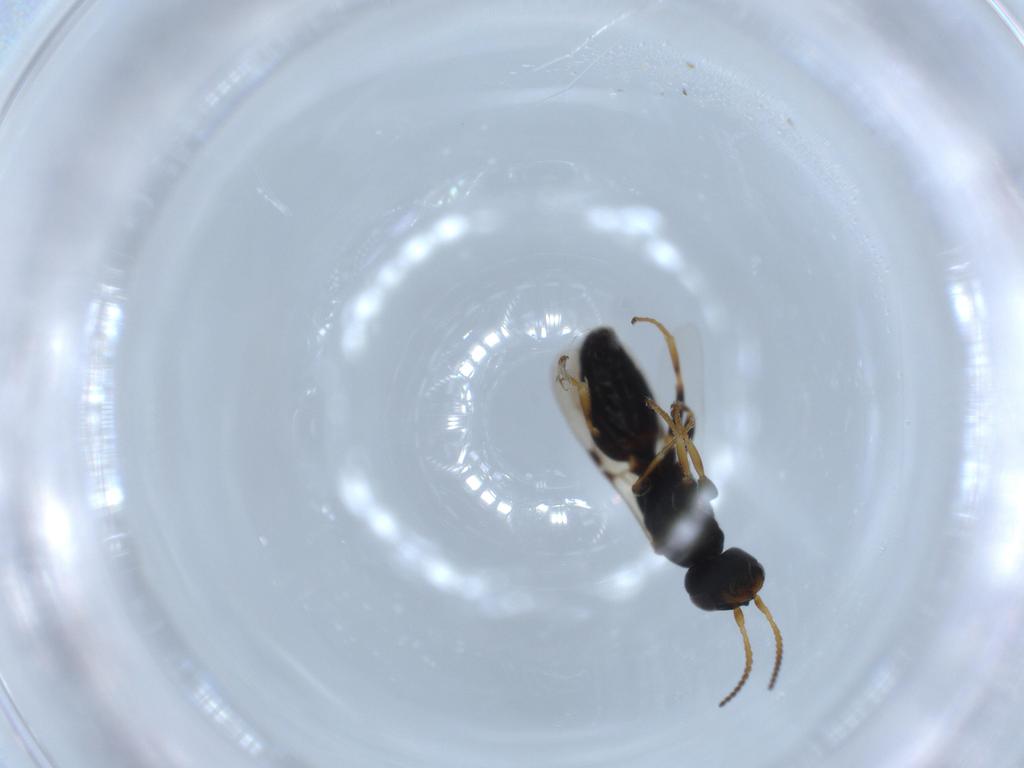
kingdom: Animalia
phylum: Arthropoda
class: Insecta
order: Hymenoptera
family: Bethylidae
